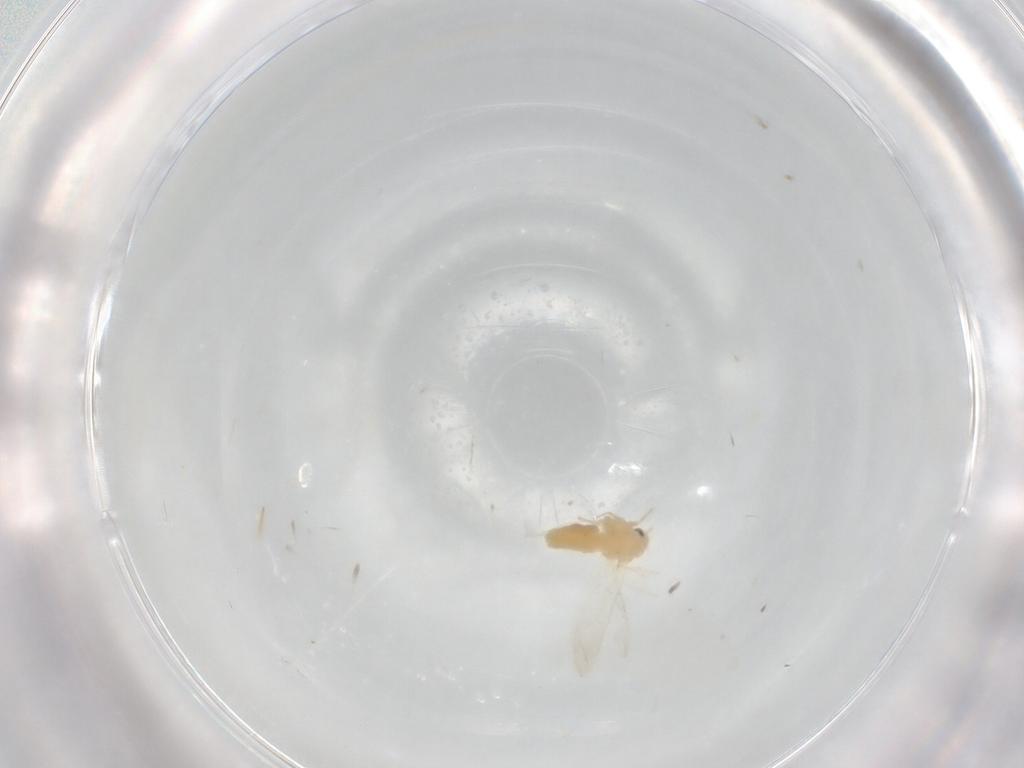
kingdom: Animalia
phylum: Arthropoda
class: Insecta
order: Hemiptera
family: Aleyrodidae
